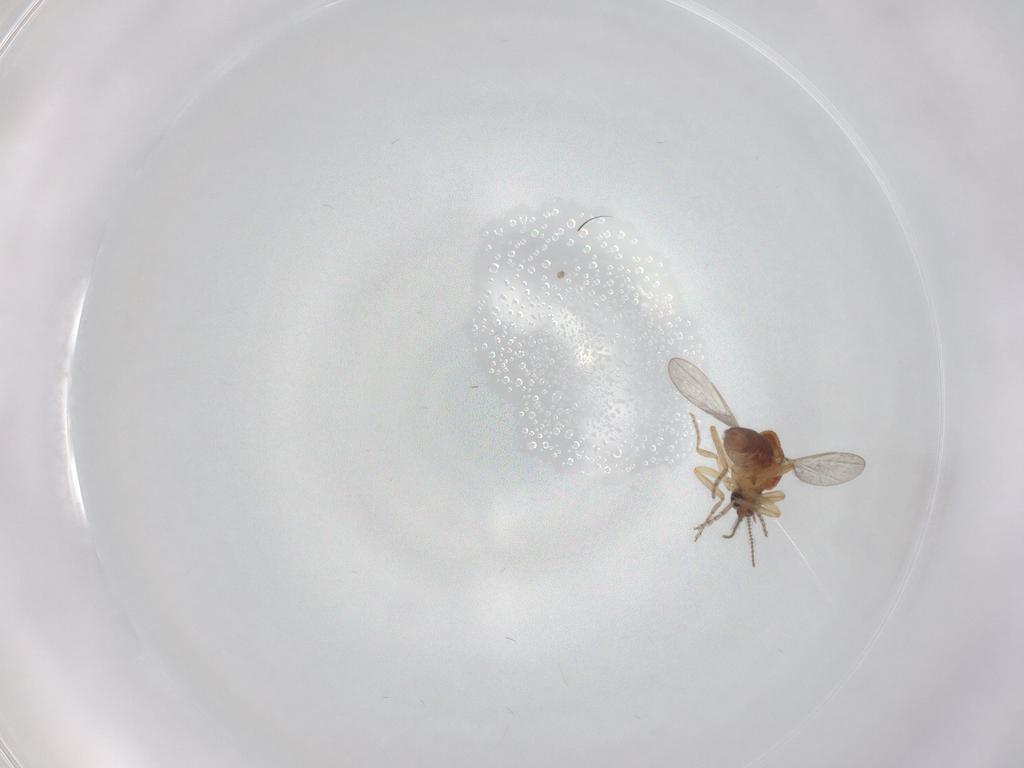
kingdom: Animalia
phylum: Arthropoda
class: Insecta
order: Diptera
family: Ceratopogonidae
